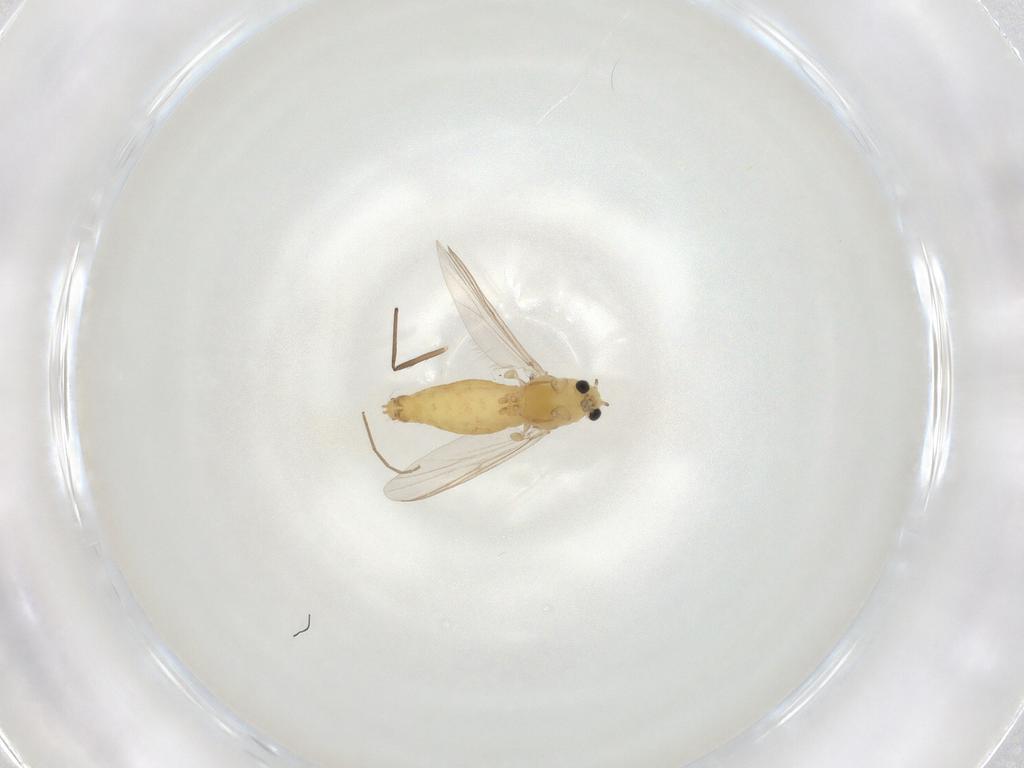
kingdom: Animalia
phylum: Arthropoda
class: Insecta
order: Diptera
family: Chironomidae
